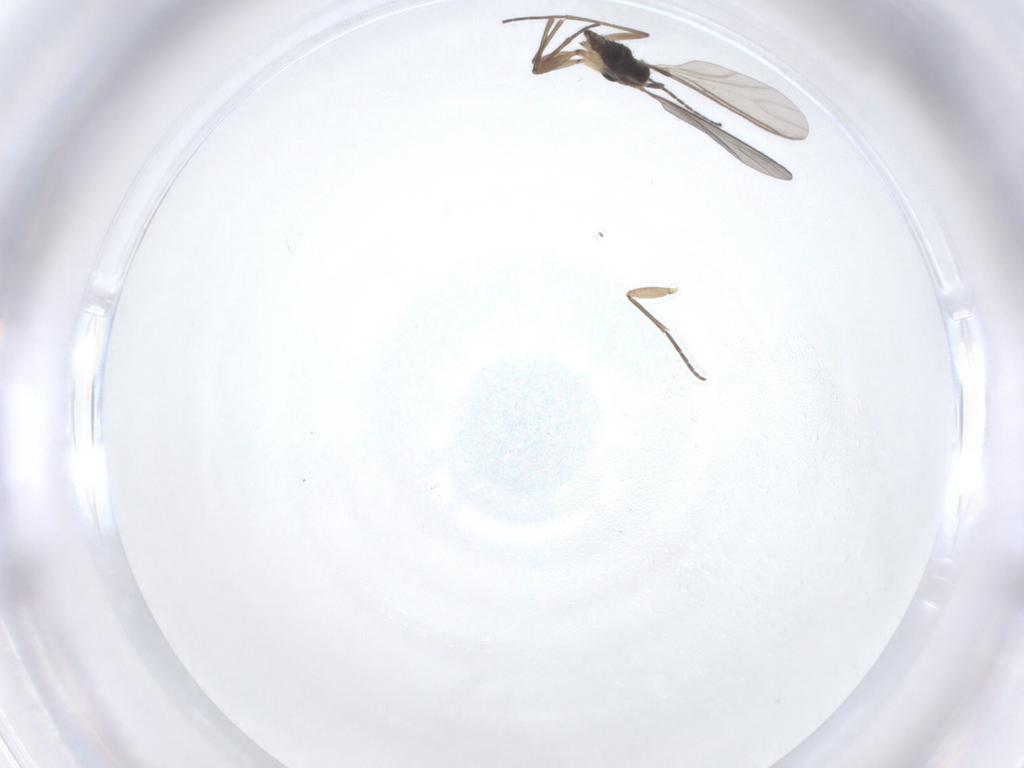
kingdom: Animalia
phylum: Arthropoda
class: Insecta
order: Diptera
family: Sciaridae
